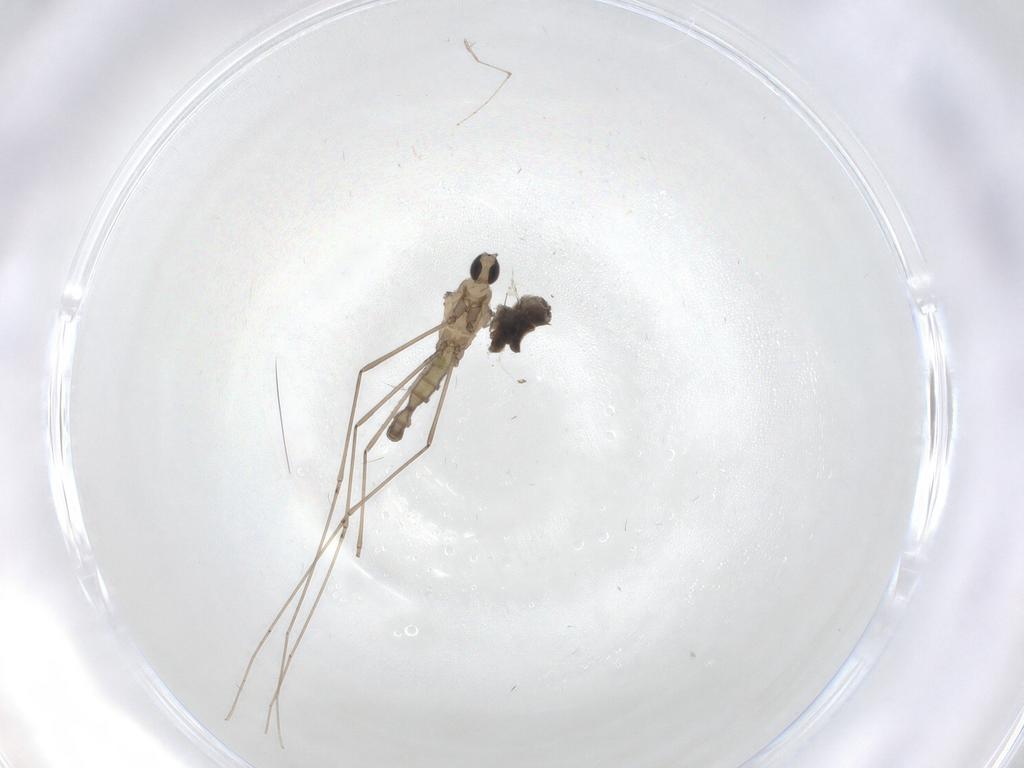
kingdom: Animalia
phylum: Arthropoda
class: Insecta
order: Diptera
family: Cecidomyiidae
